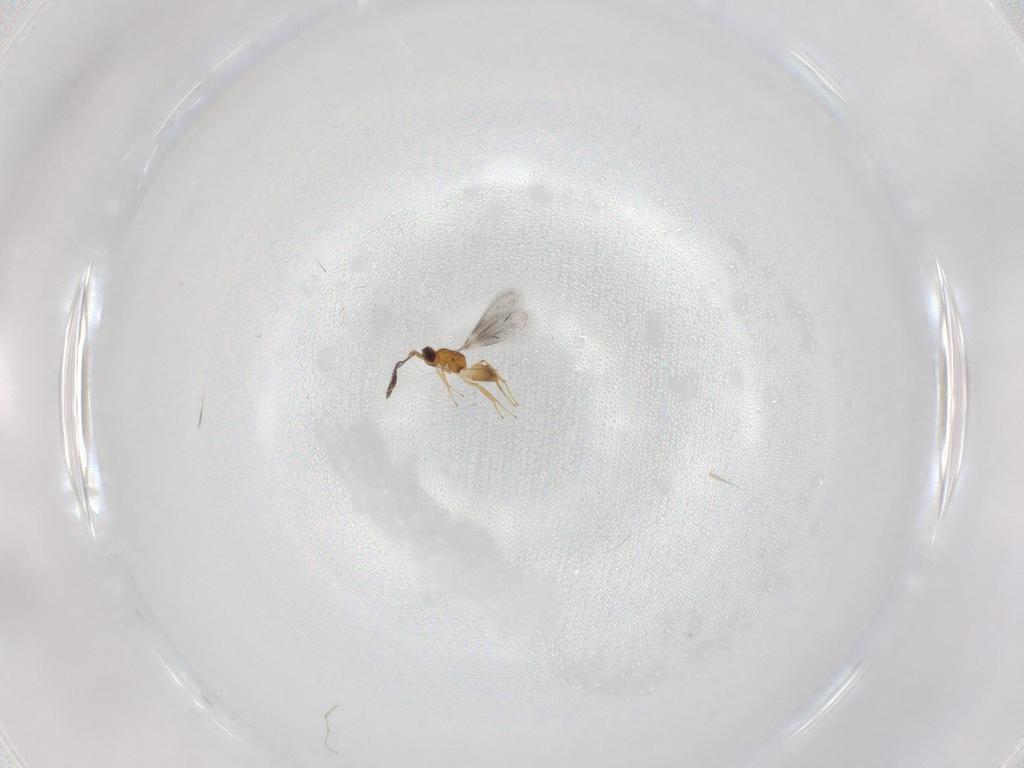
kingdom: Animalia
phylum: Arthropoda
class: Insecta
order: Hymenoptera
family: Mymaridae
